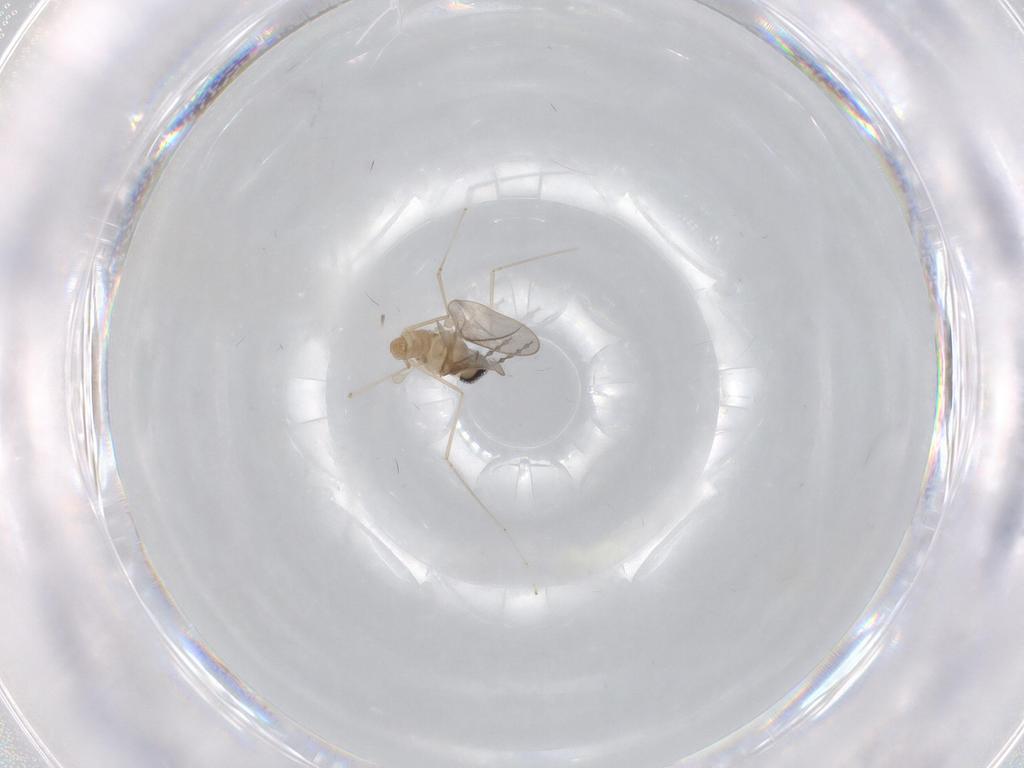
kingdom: Animalia
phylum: Arthropoda
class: Insecta
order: Diptera
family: Cecidomyiidae
